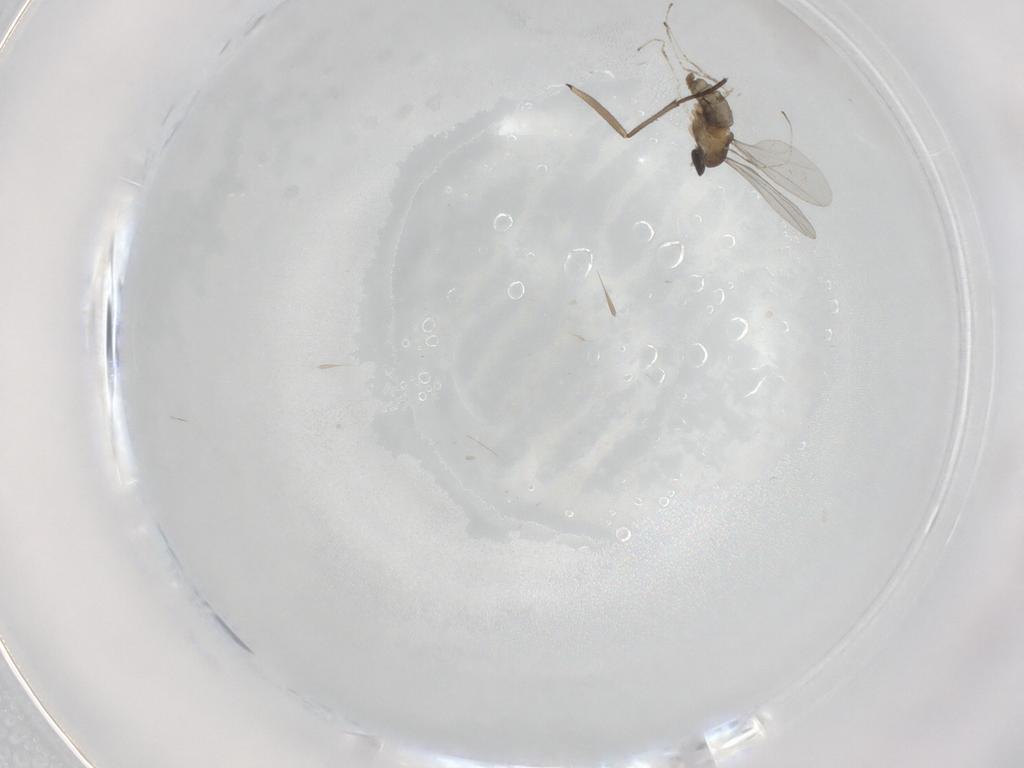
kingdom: Animalia
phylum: Arthropoda
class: Insecta
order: Diptera
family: Cecidomyiidae
